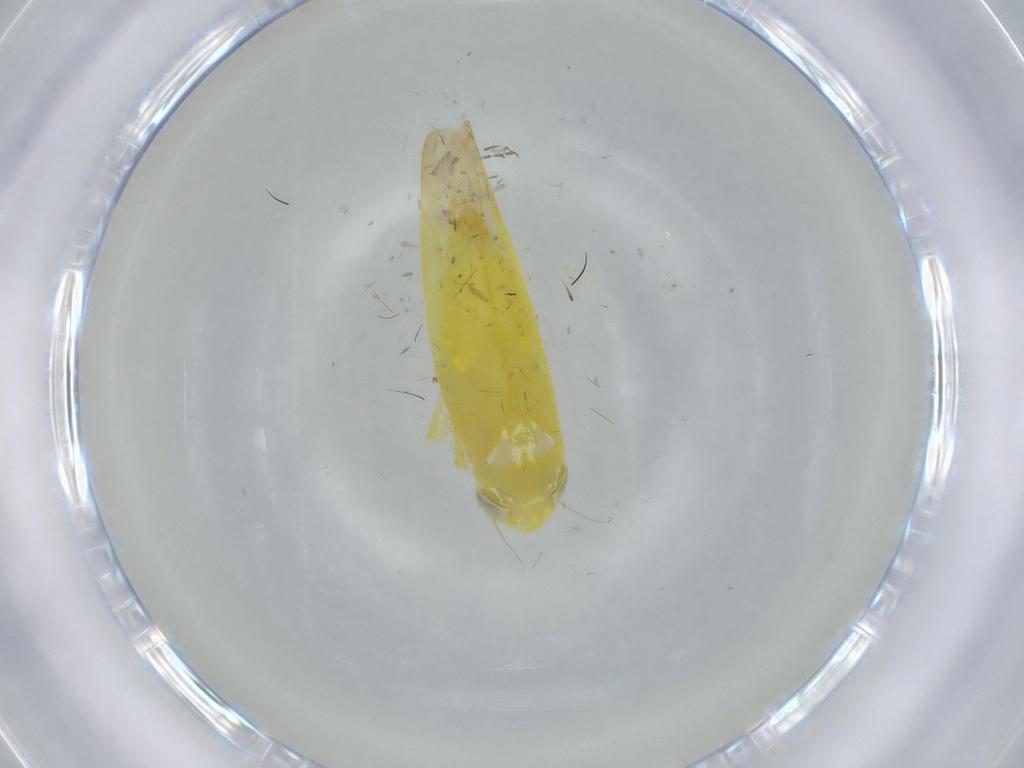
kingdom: Animalia
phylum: Arthropoda
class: Insecta
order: Hemiptera
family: Cicadellidae
